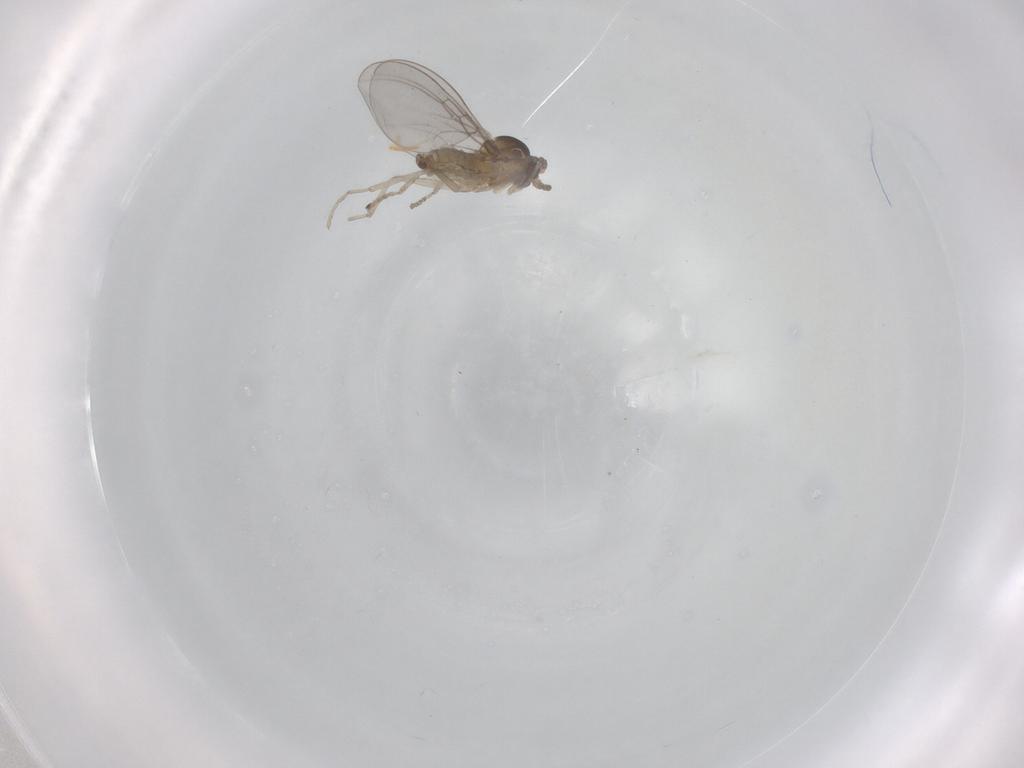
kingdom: Animalia
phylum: Arthropoda
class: Insecta
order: Diptera
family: Cecidomyiidae
